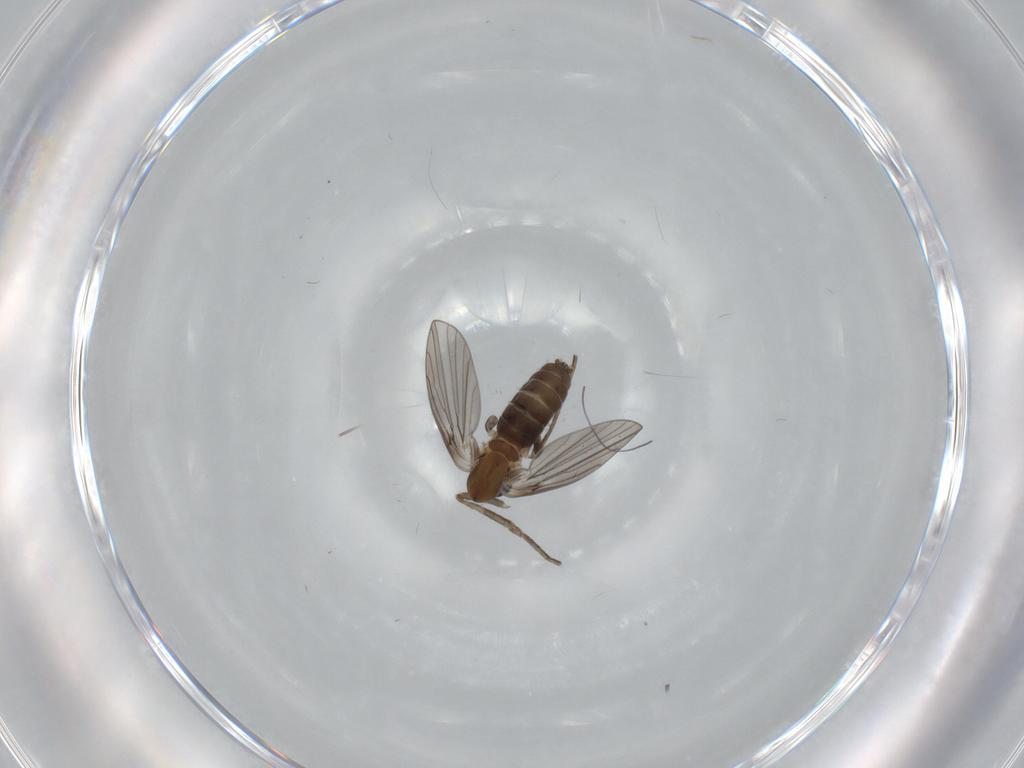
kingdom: Animalia
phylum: Arthropoda
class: Insecta
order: Diptera
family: Psychodidae
